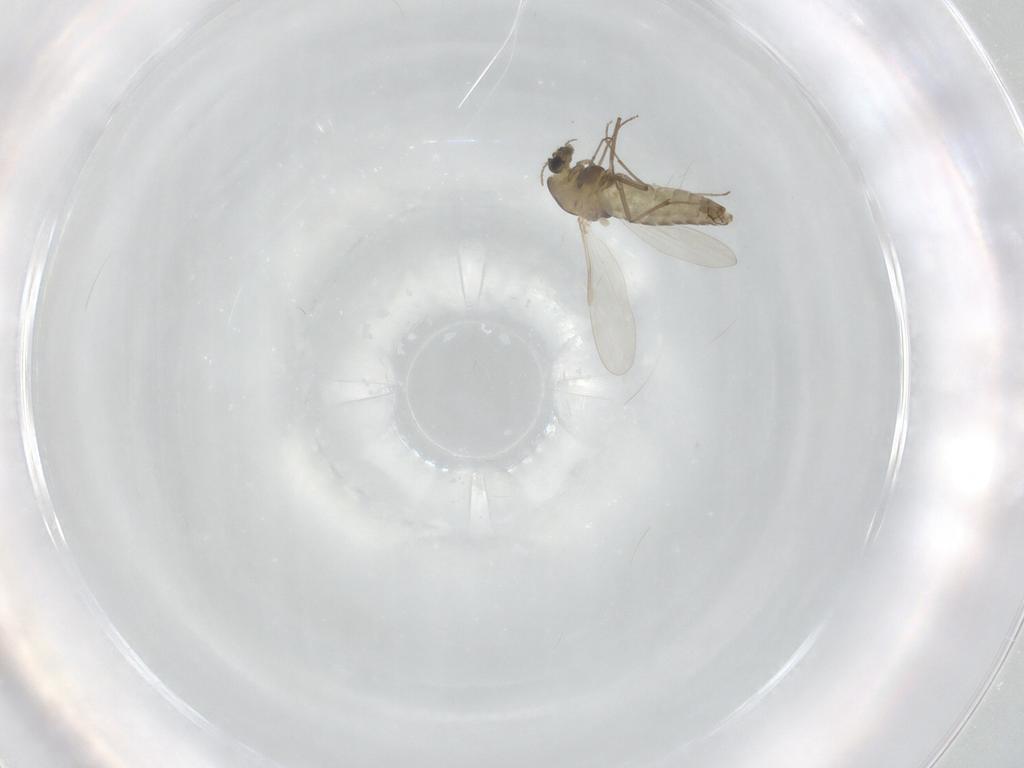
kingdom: Animalia
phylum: Arthropoda
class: Insecta
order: Diptera
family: Chironomidae
